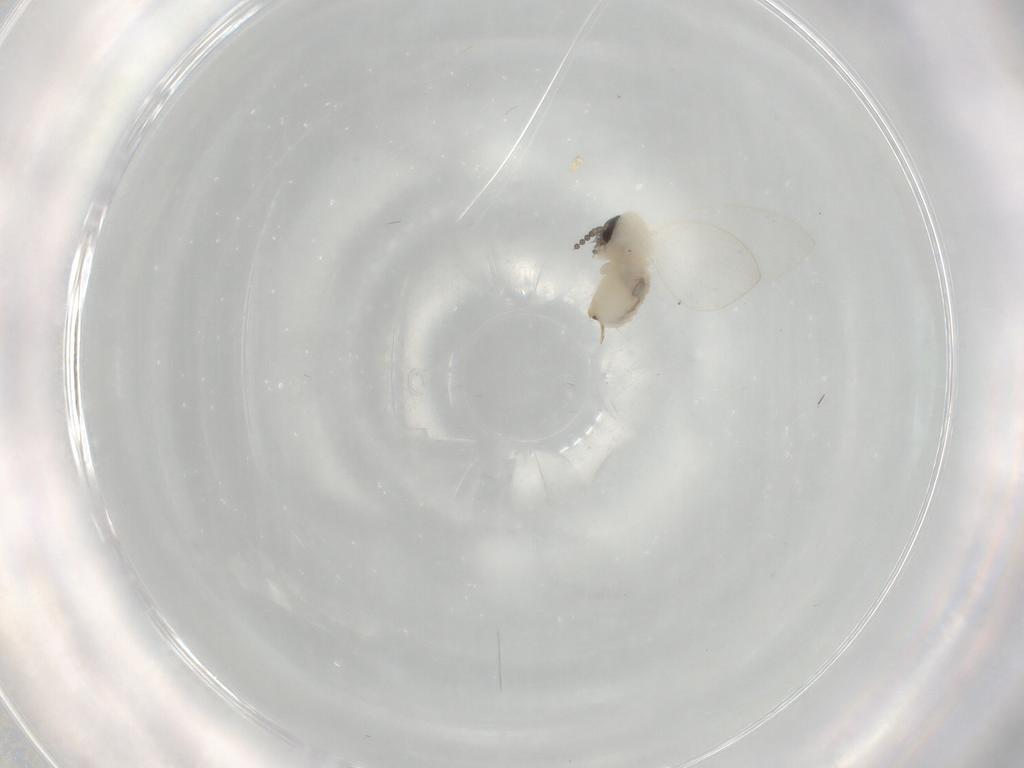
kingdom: Animalia
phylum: Arthropoda
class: Insecta
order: Diptera
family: Psychodidae
